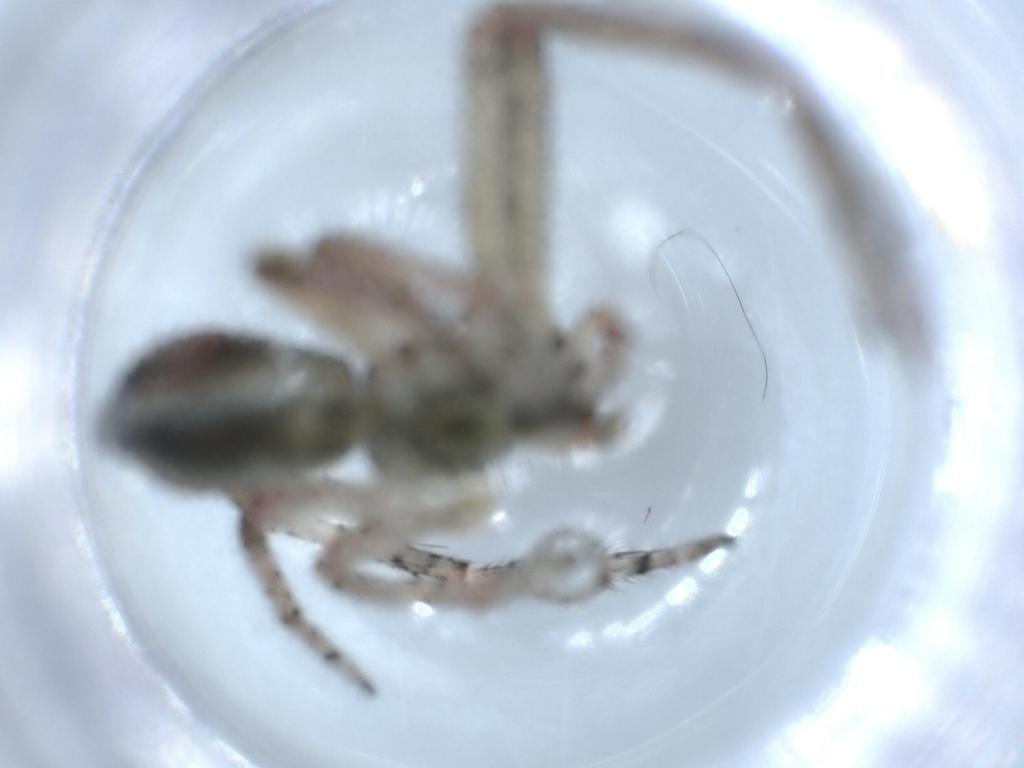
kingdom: Animalia
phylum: Arthropoda
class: Arachnida
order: Araneae
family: Thomisidae
